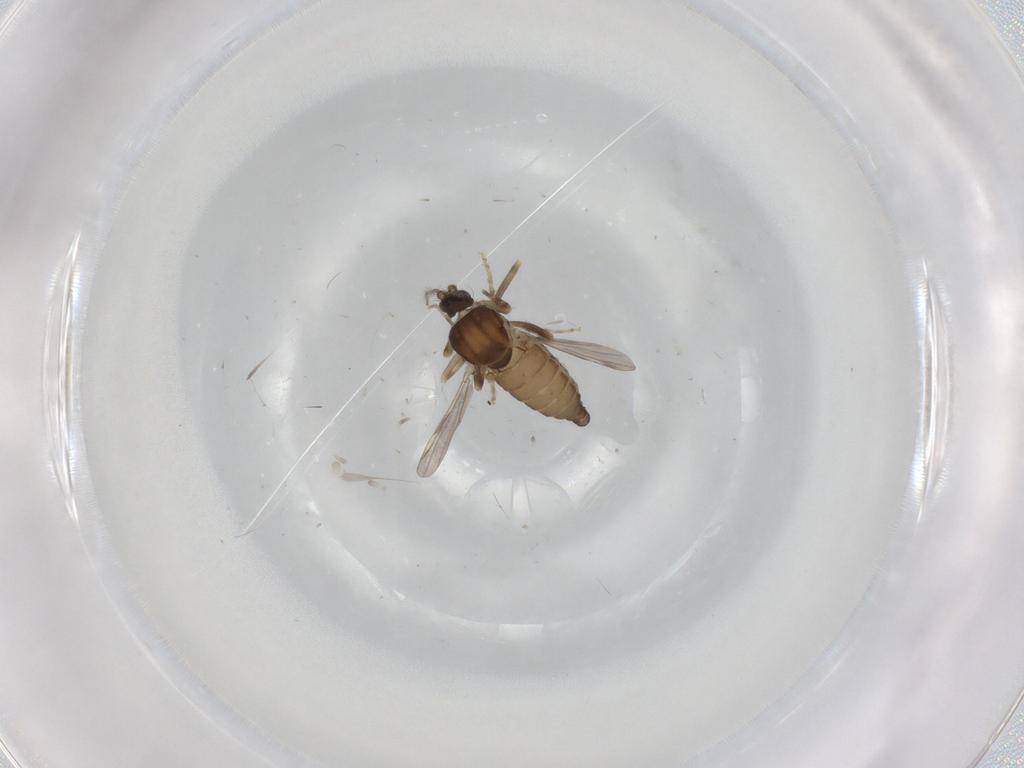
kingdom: Animalia
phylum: Arthropoda
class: Insecta
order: Diptera
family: Ceratopogonidae
